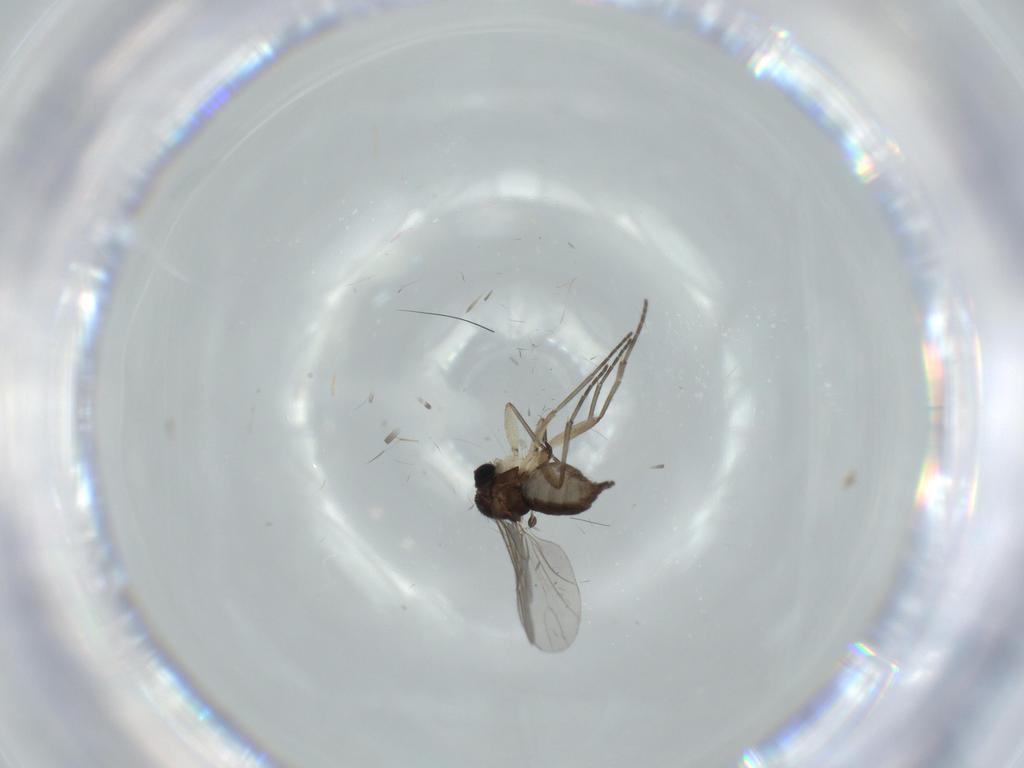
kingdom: Animalia
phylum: Arthropoda
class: Insecta
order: Diptera
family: Sciaridae
